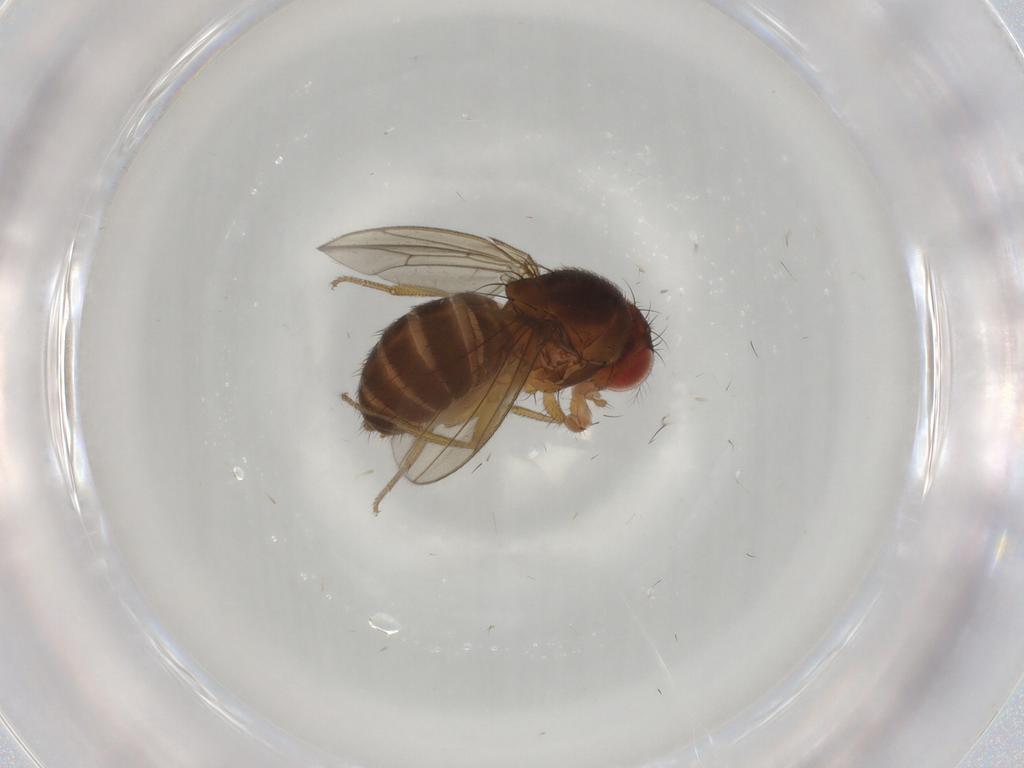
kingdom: Animalia
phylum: Arthropoda
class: Insecta
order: Diptera
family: Drosophilidae
